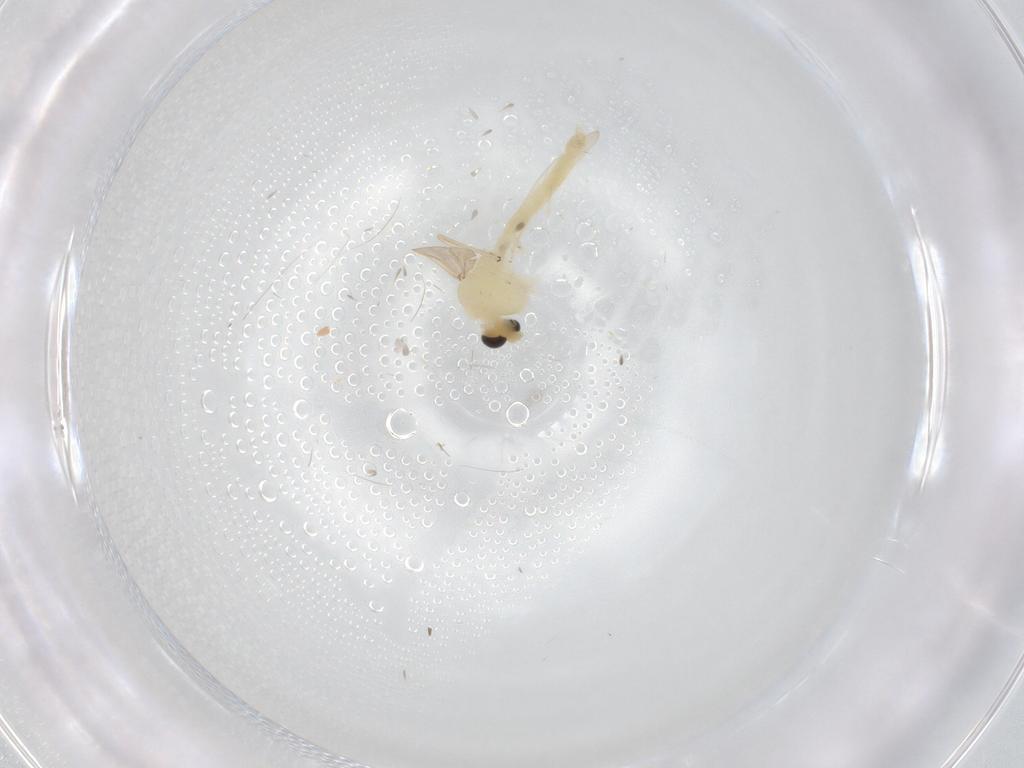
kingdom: Animalia
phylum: Arthropoda
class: Insecta
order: Diptera
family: Chironomidae
